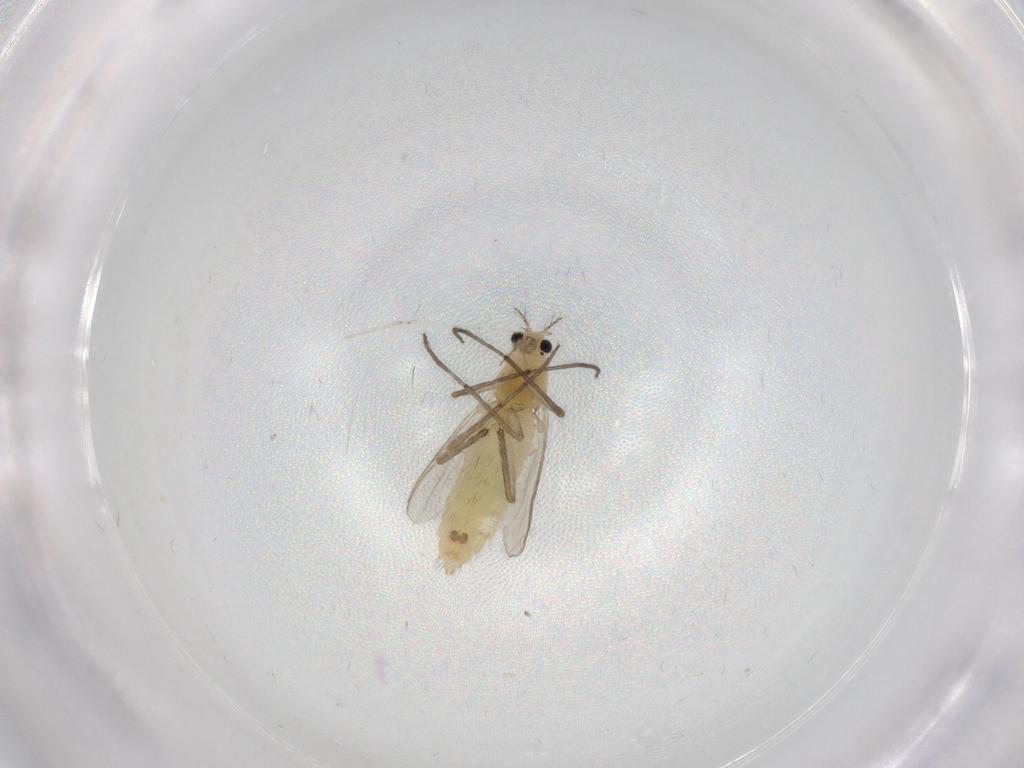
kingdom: Animalia
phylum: Arthropoda
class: Insecta
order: Diptera
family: Chironomidae
